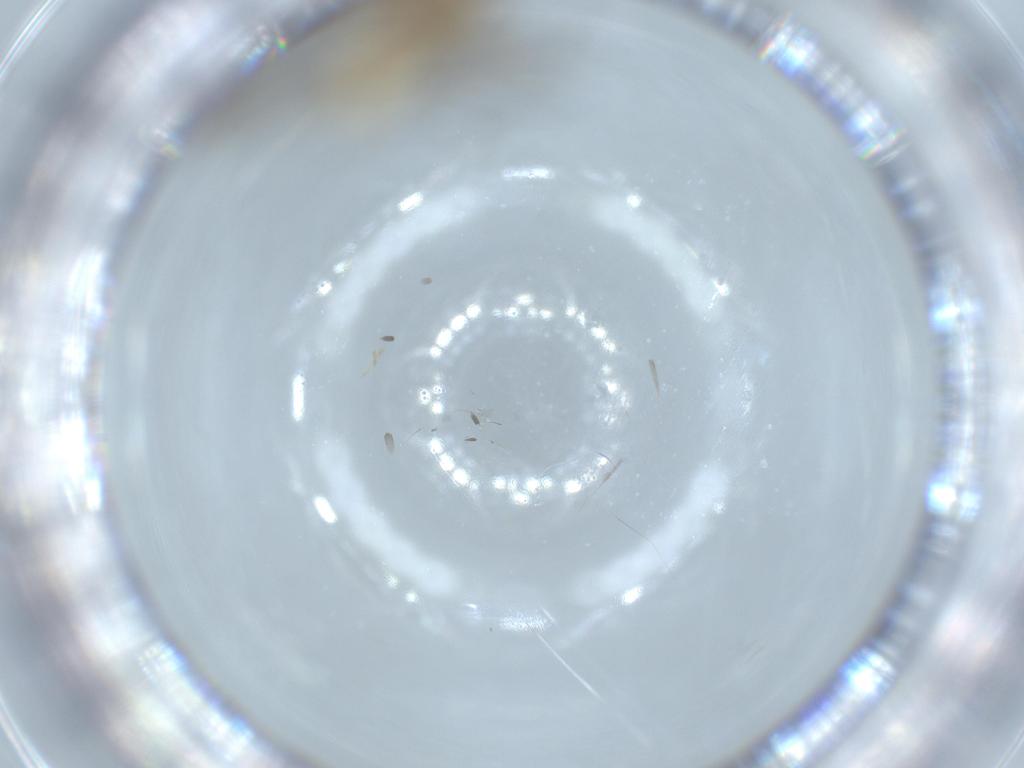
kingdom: Animalia
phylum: Arthropoda
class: Insecta
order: Diptera
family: Sciaridae
